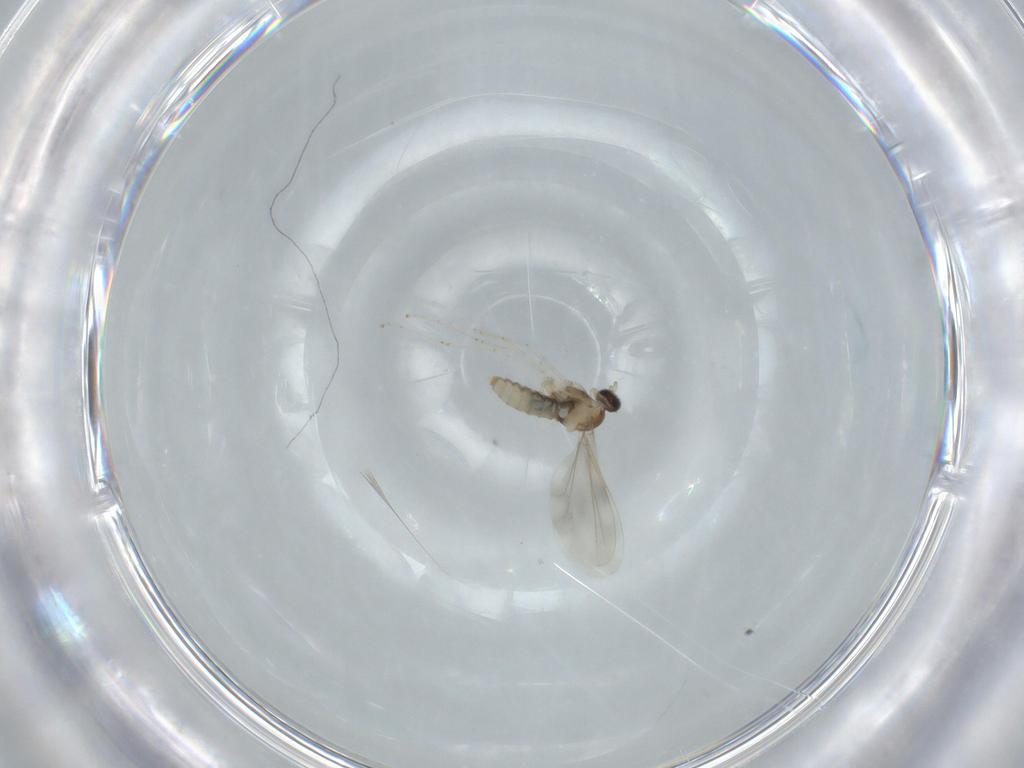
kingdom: Animalia
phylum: Arthropoda
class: Insecta
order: Diptera
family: Cecidomyiidae
